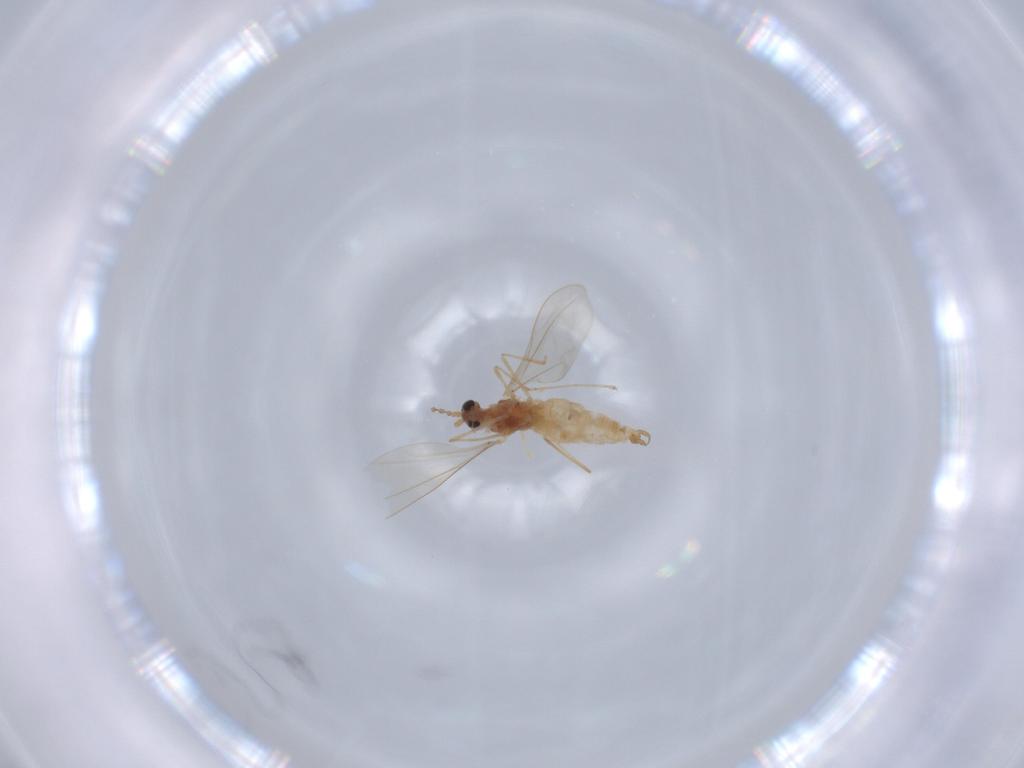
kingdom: Animalia
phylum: Arthropoda
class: Insecta
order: Diptera
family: Cecidomyiidae
